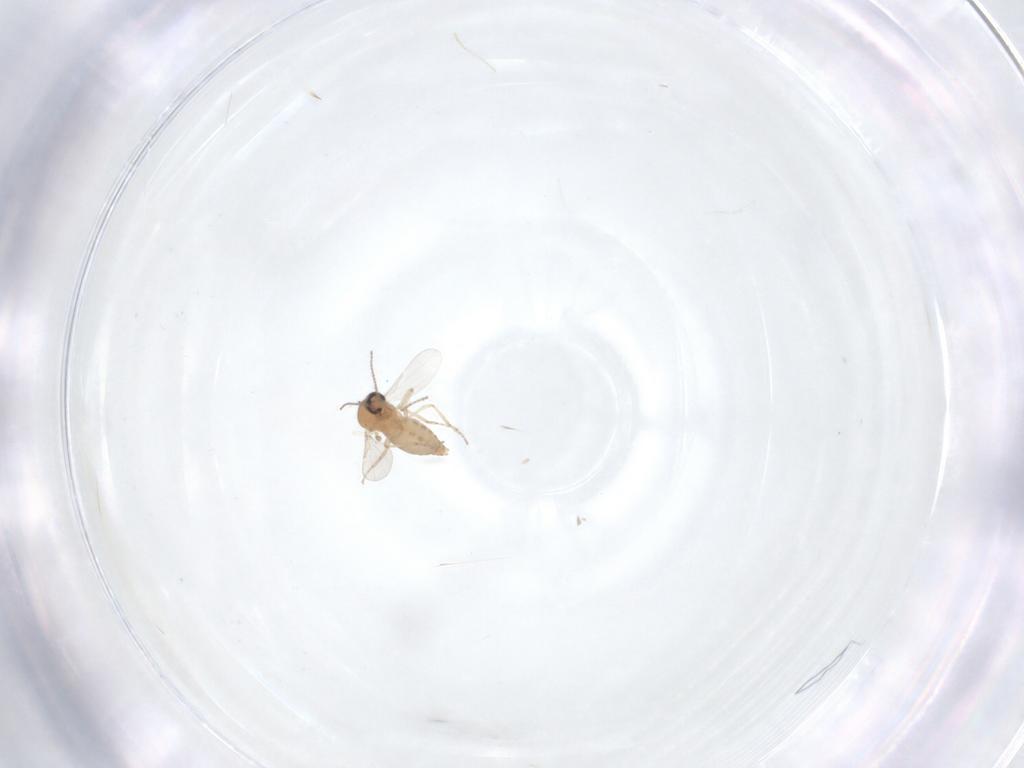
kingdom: Animalia
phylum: Arthropoda
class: Insecta
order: Diptera
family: Cecidomyiidae
